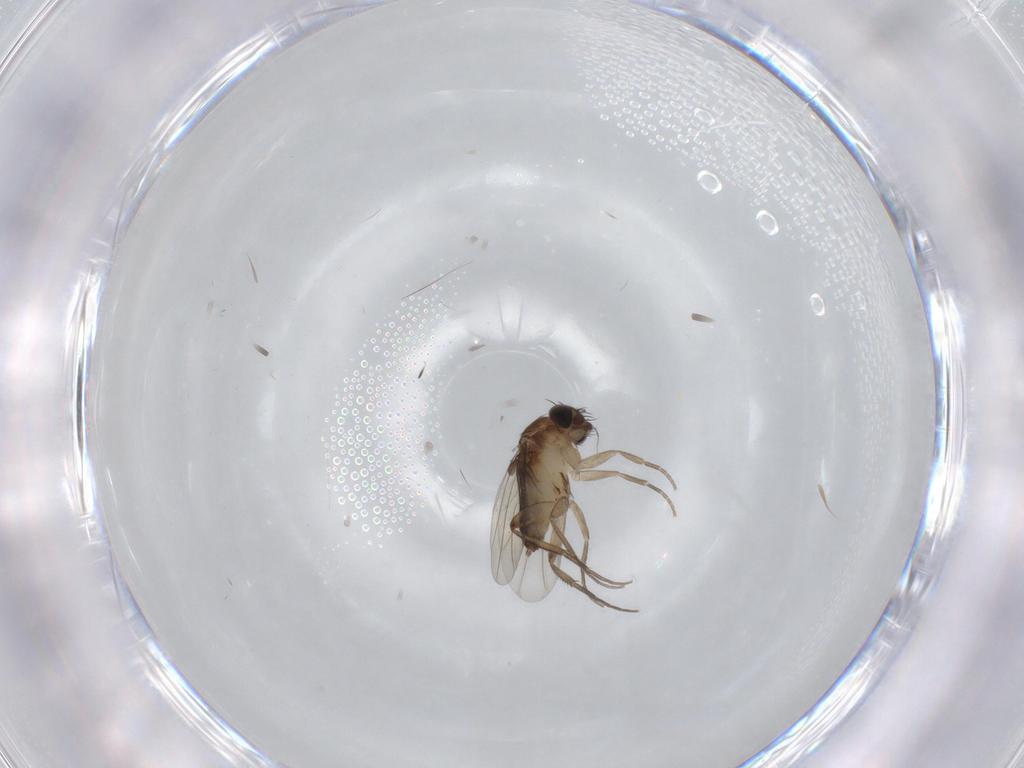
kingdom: Animalia
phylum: Arthropoda
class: Insecta
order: Diptera
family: Phoridae
